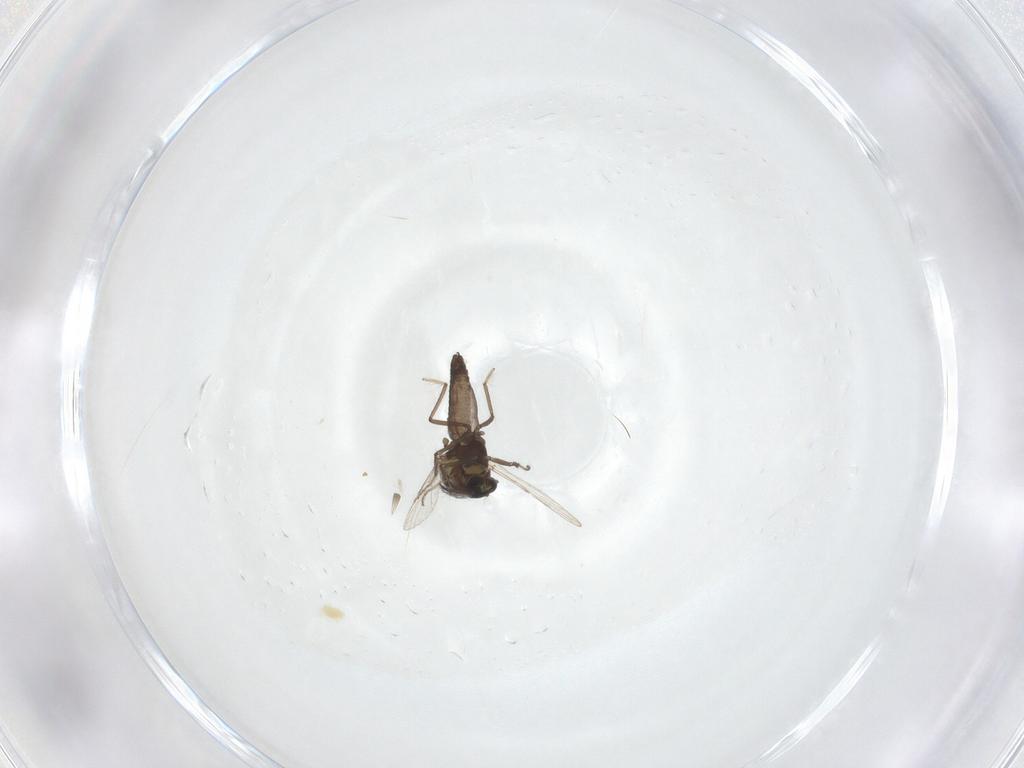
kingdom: Animalia
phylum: Arthropoda
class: Insecta
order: Diptera
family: Ceratopogonidae
